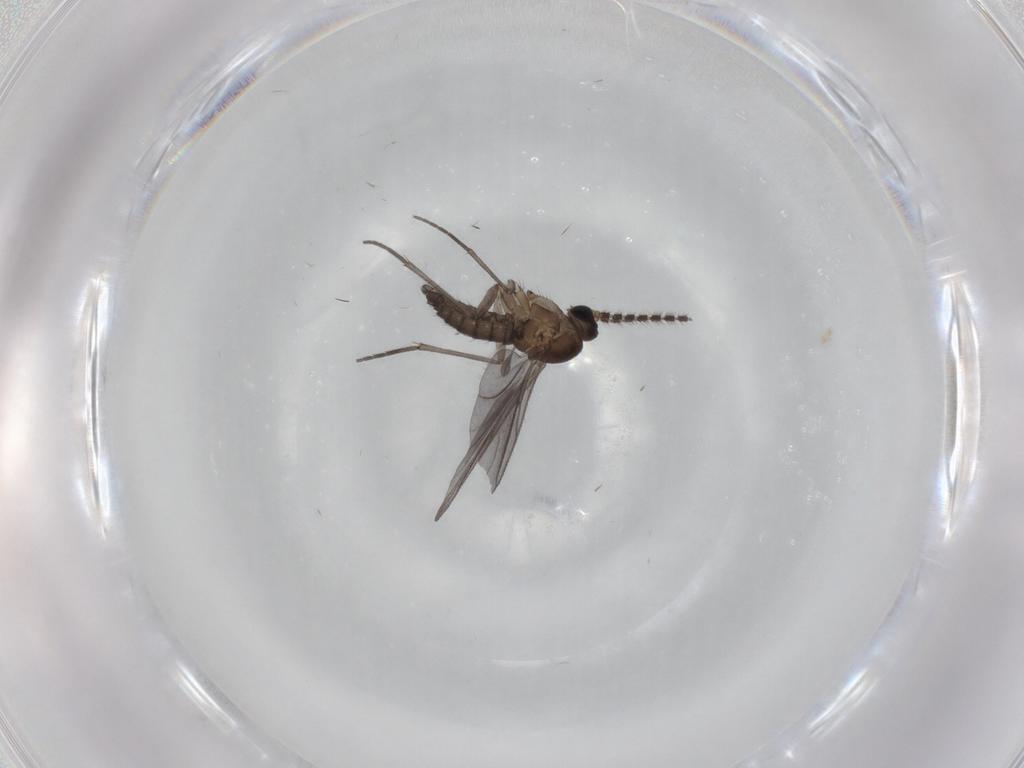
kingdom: Animalia
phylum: Arthropoda
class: Insecta
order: Diptera
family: Cecidomyiidae
